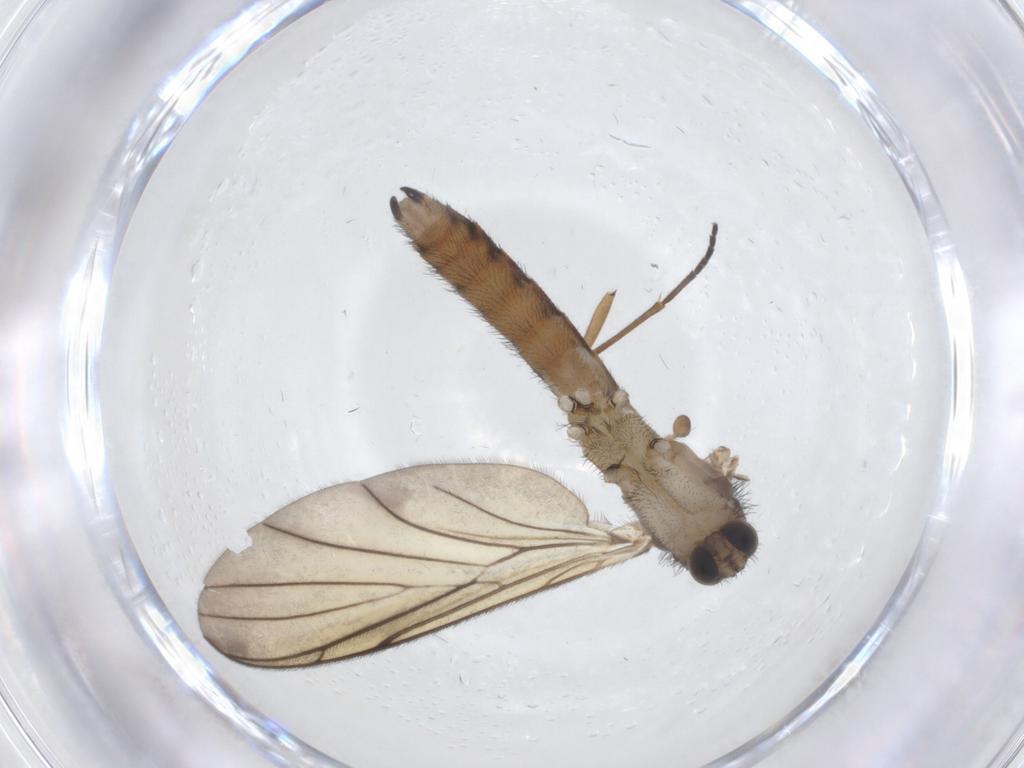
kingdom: Animalia
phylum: Arthropoda
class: Insecta
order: Diptera
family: Keroplatidae
